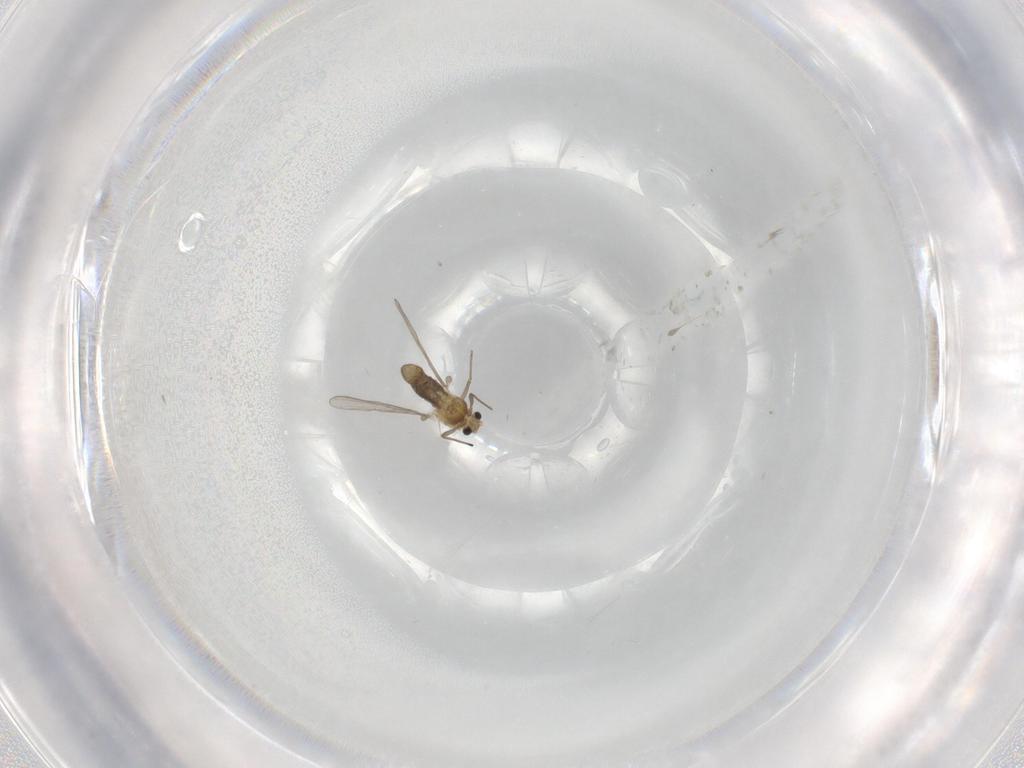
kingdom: Animalia
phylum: Arthropoda
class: Insecta
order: Diptera
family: Chironomidae
